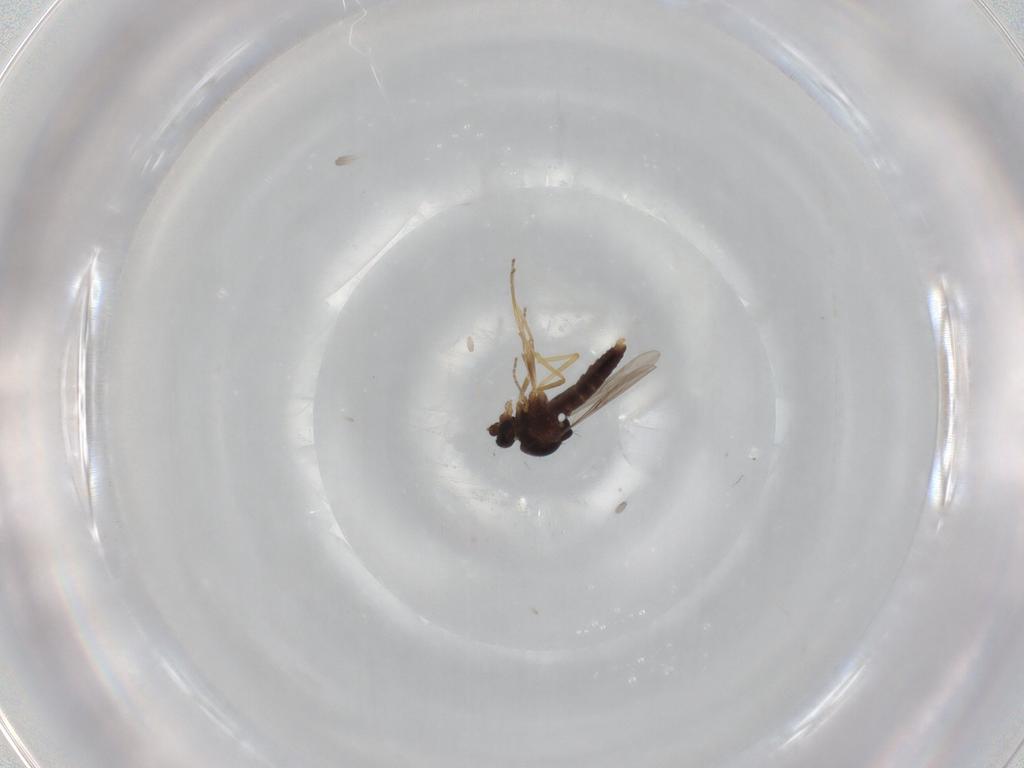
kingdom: Animalia
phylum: Arthropoda
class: Insecta
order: Diptera
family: Ceratopogonidae
